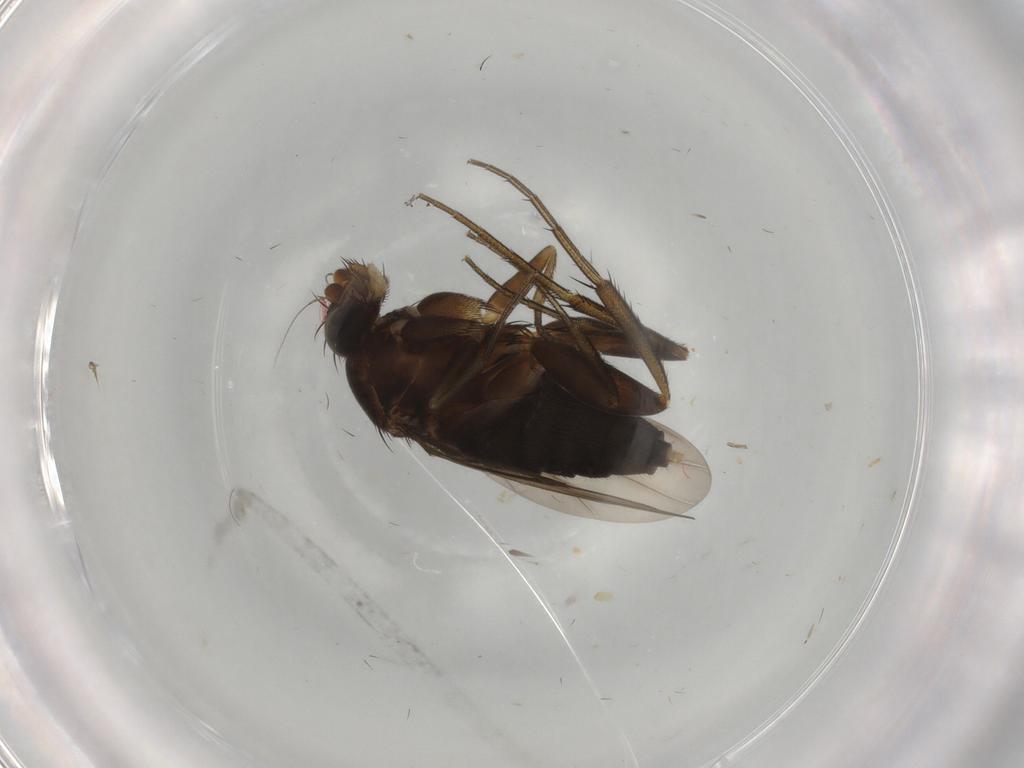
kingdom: Animalia
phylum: Arthropoda
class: Insecta
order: Diptera
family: Phoridae
